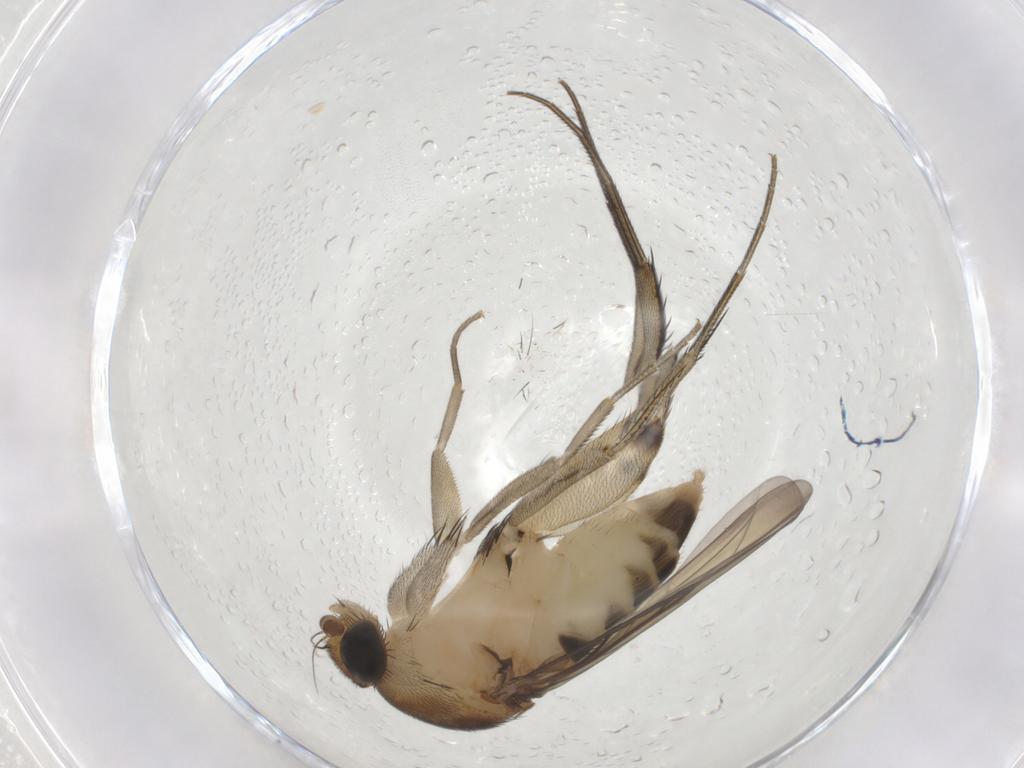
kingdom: Animalia
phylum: Arthropoda
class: Insecta
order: Diptera
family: Phoridae
